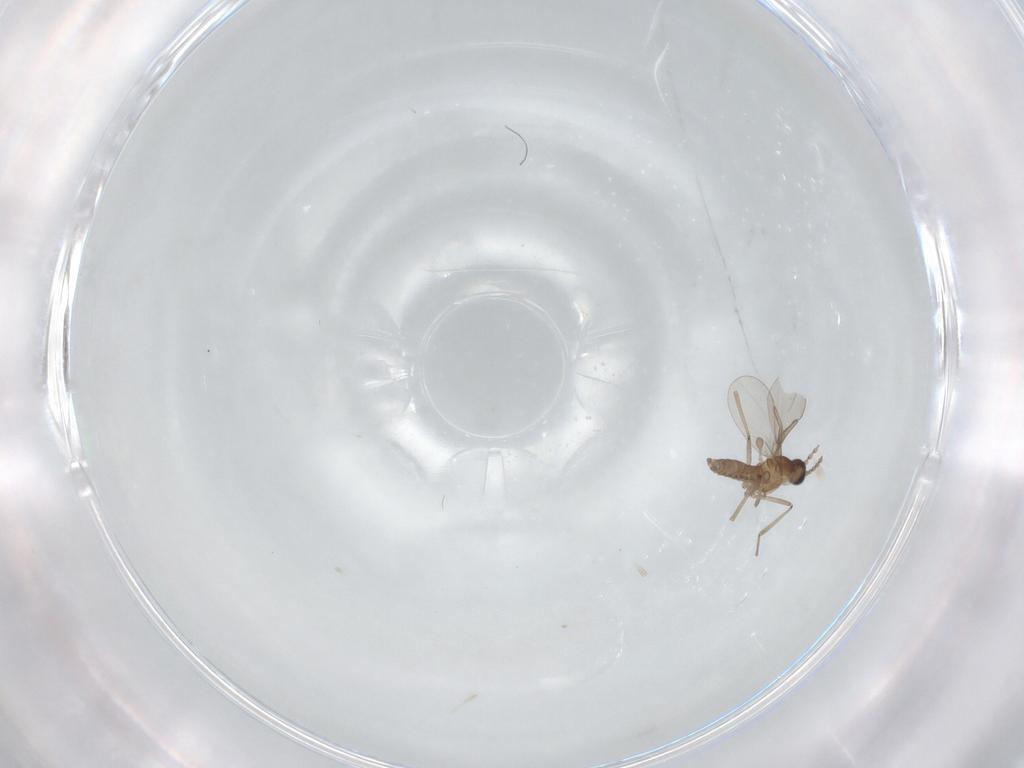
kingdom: Animalia
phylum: Arthropoda
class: Insecta
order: Diptera
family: Cecidomyiidae
